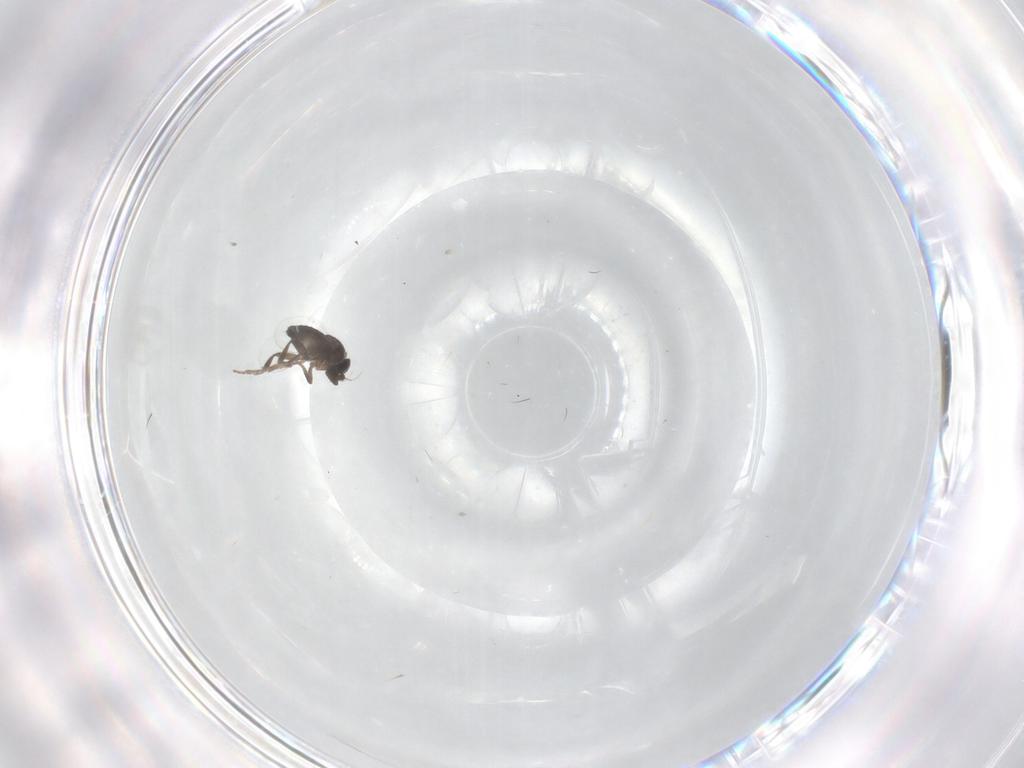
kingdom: Animalia
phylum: Arthropoda
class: Insecta
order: Diptera
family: Phoridae
